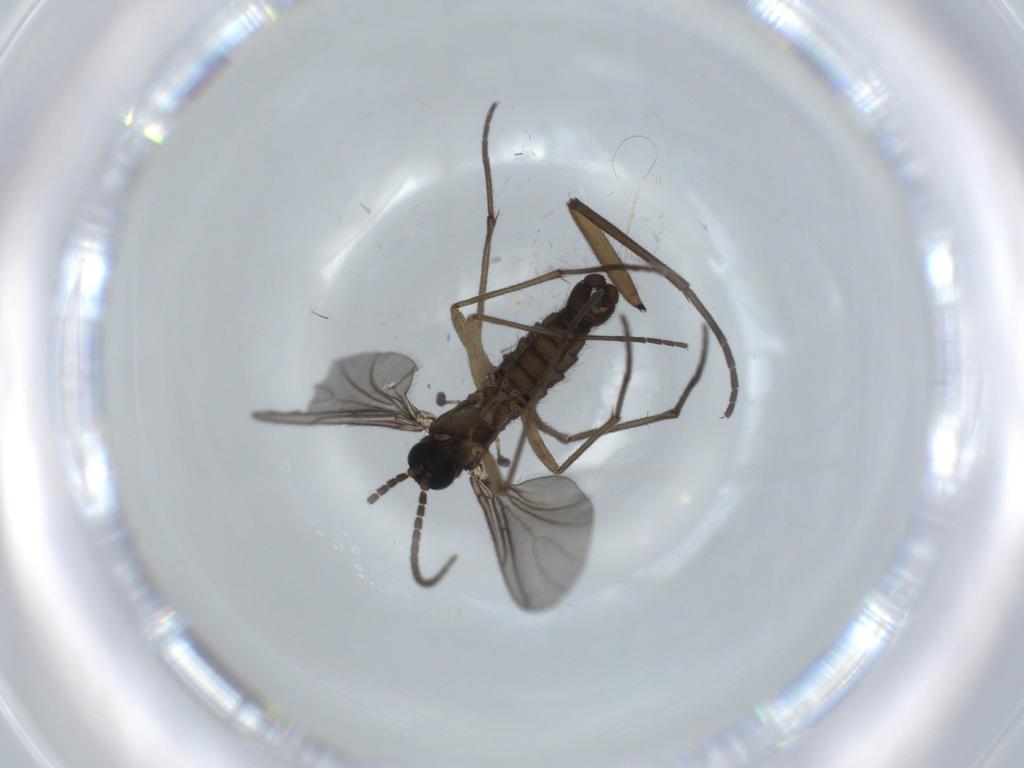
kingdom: Animalia
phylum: Arthropoda
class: Insecta
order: Diptera
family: Sciaridae
